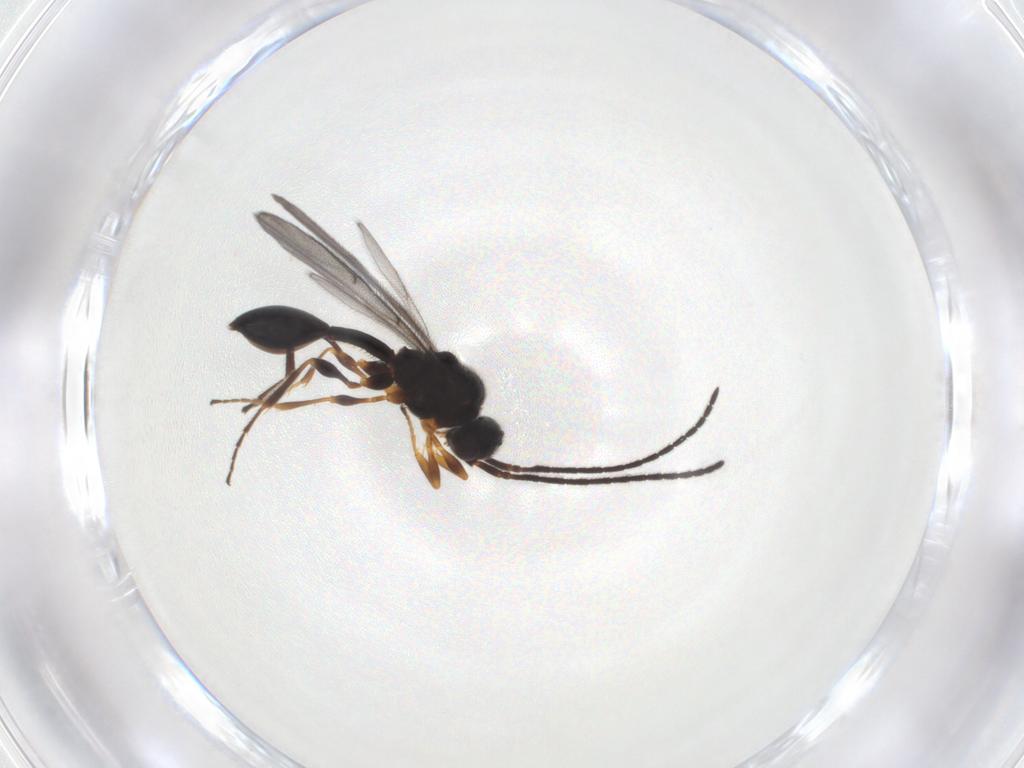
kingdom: Animalia
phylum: Arthropoda
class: Insecta
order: Hymenoptera
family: Diapriidae
